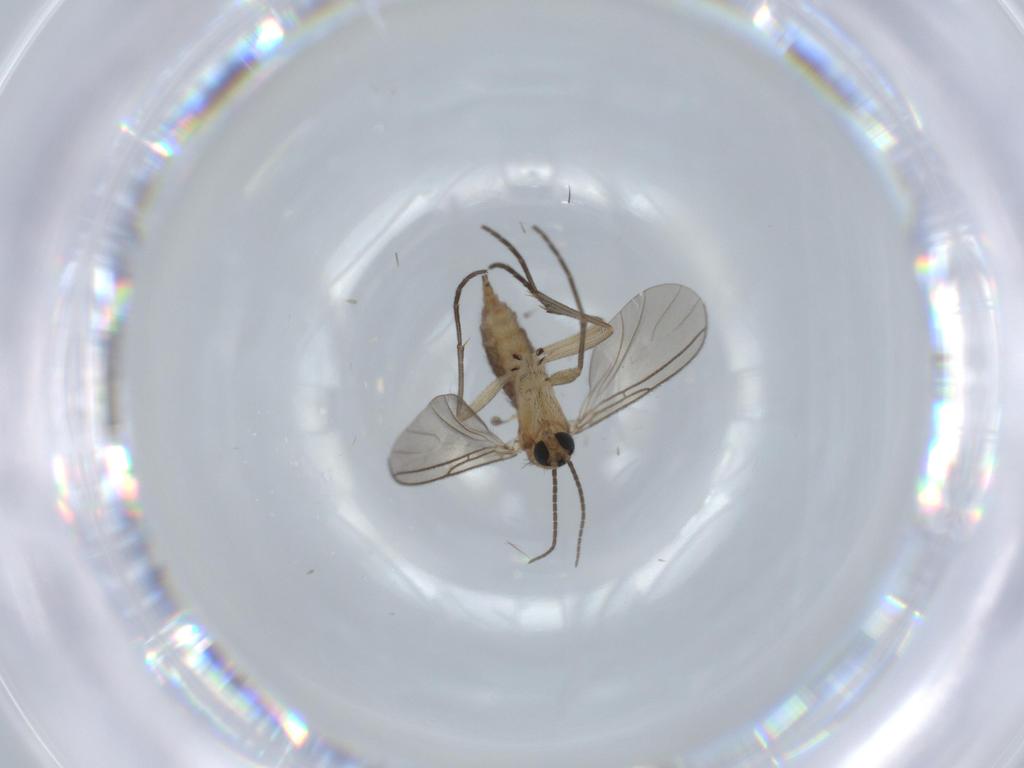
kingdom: Animalia
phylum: Arthropoda
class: Insecta
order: Diptera
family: Sciaridae
